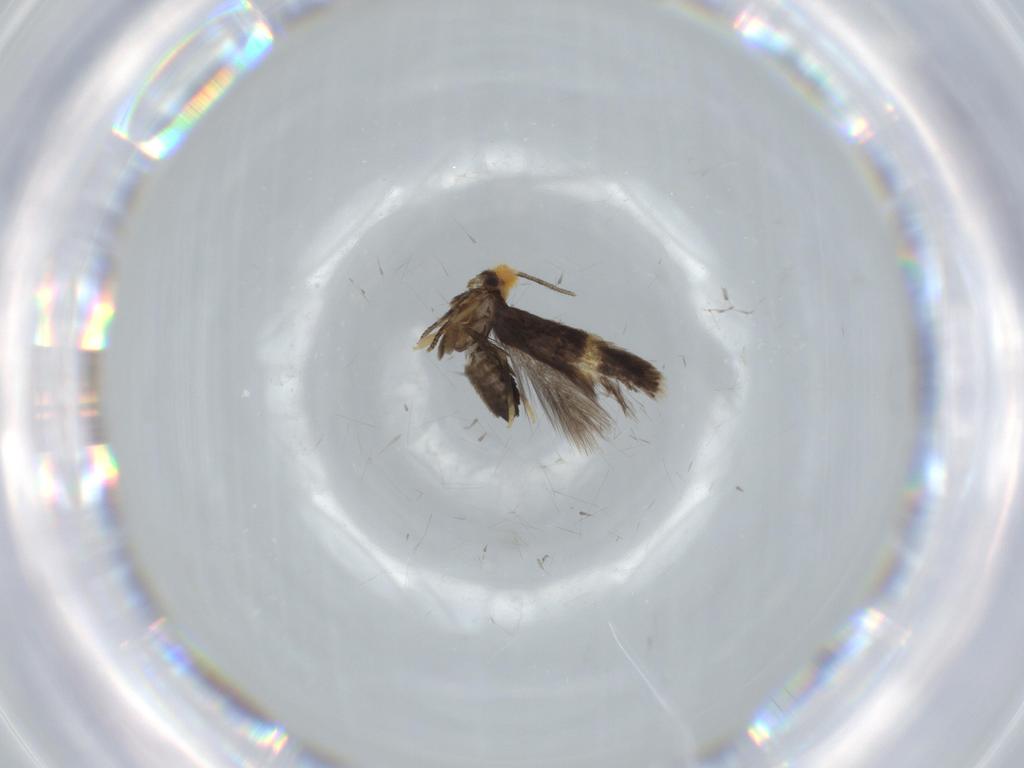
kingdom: Animalia
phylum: Arthropoda
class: Insecta
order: Lepidoptera
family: Nepticulidae
